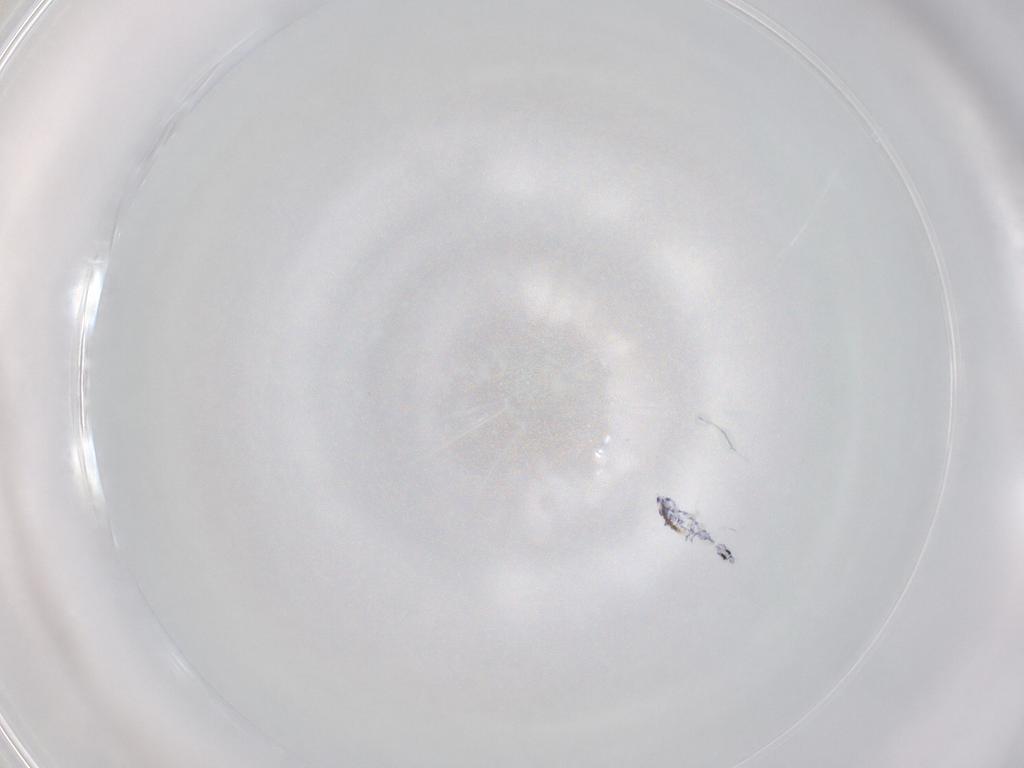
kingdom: Animalia
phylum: Arthropoda
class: Collembola
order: Entomobryomorpha
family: Entomobryidae
